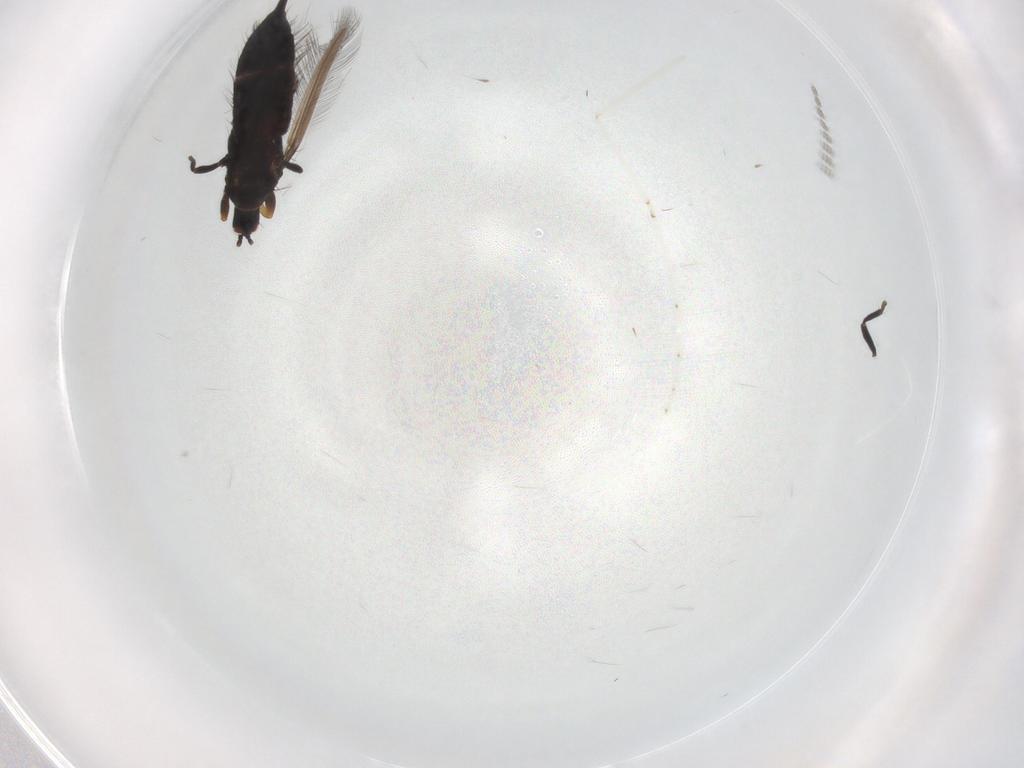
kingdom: Animalia
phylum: Arthropoda
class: Insecta
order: Thysanoptera
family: Phlaeothripidae
